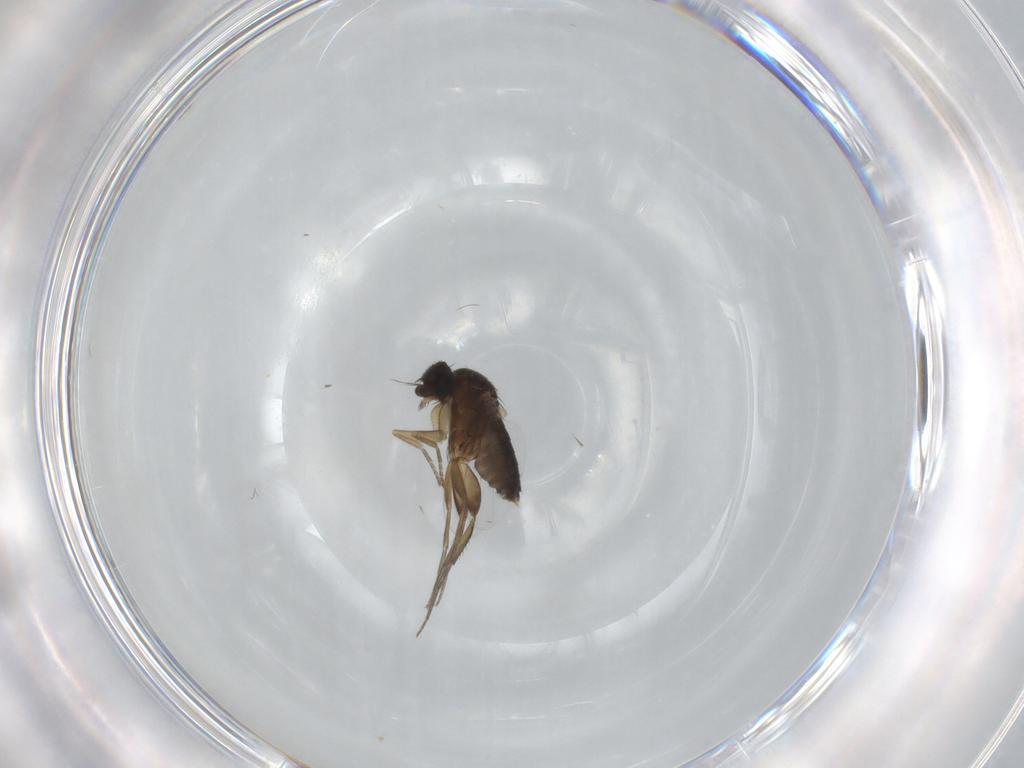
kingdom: Animalia
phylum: Arthropoda
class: Insecta
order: Diptera
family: Phoridae
